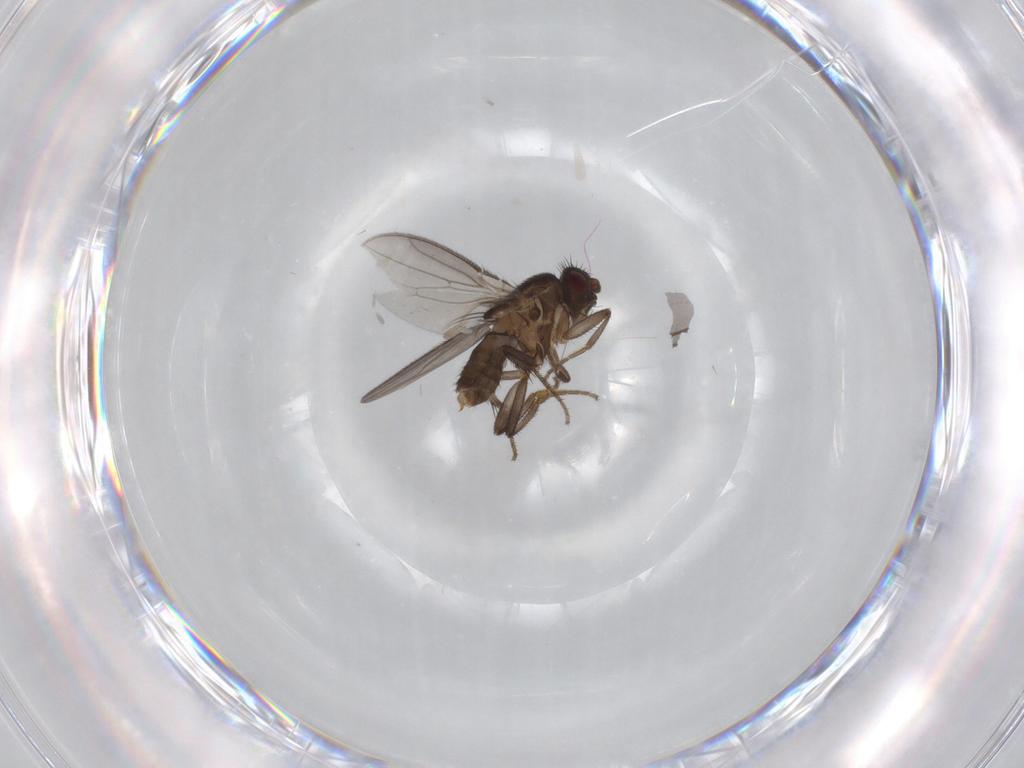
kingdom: Animalia
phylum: Arthropoda
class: Insecta
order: Diptera
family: Sphaeroceridae
